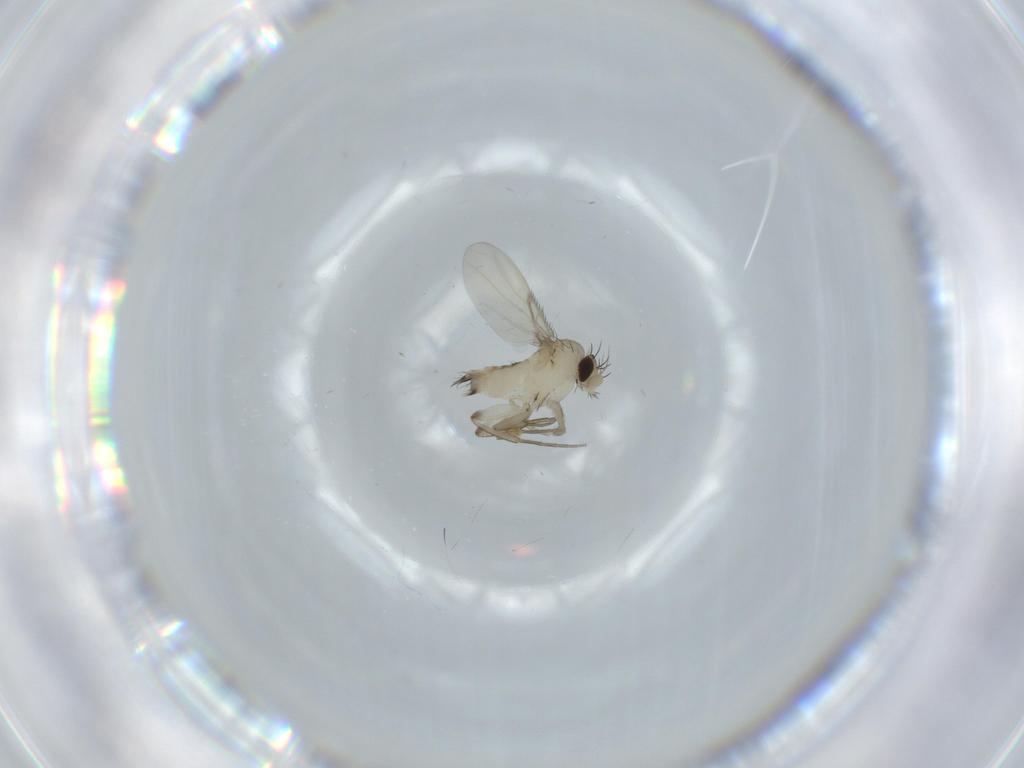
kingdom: Animalia
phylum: Arthropoda
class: Insecta
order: Diptera
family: Phoridae
